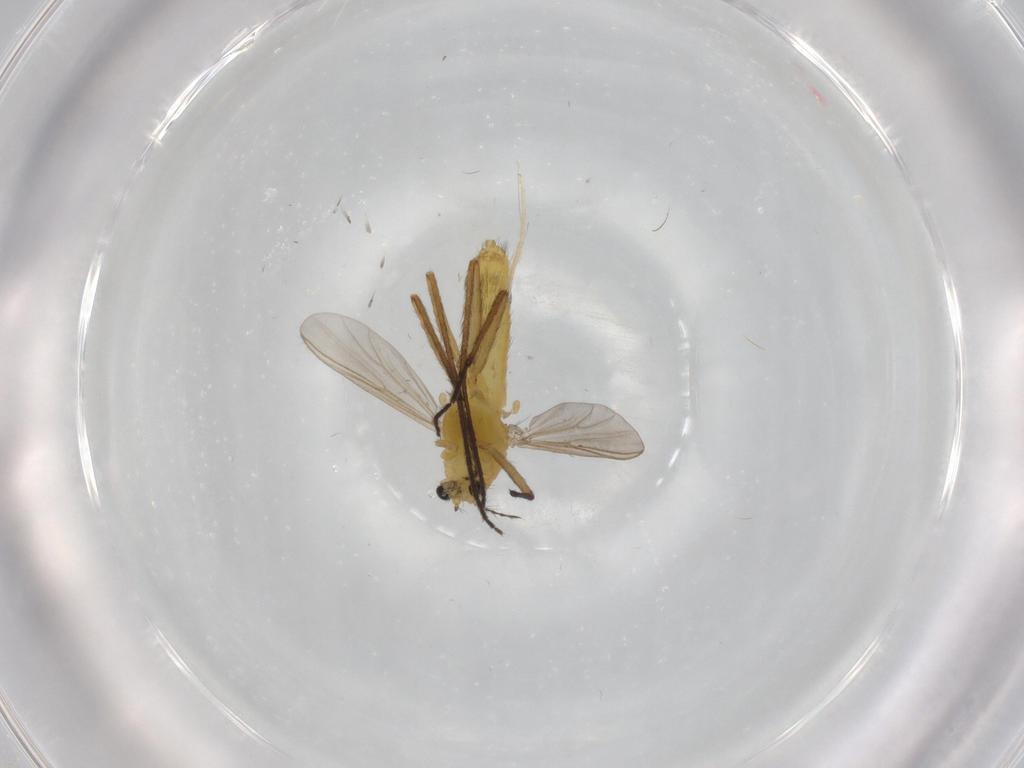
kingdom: Animalia
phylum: Arthropoda
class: Insecta
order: Diptera
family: Chironomidae
